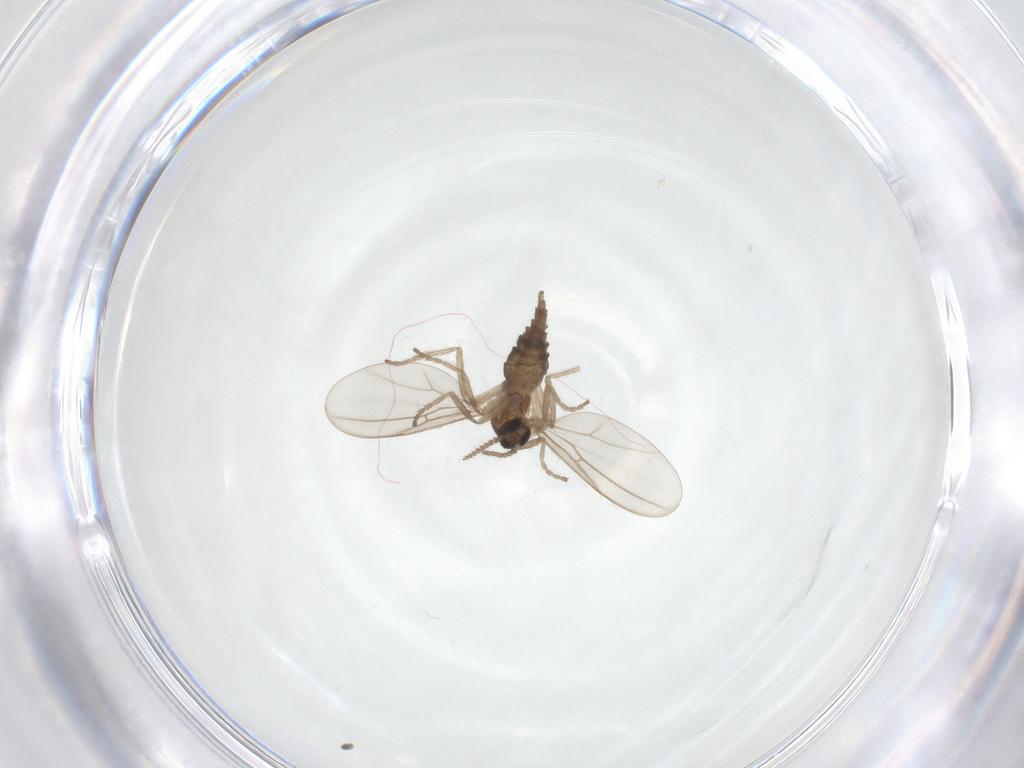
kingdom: Animalia
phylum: Arthropoda
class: Insecta
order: Diptera
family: Cecidomyiidae
